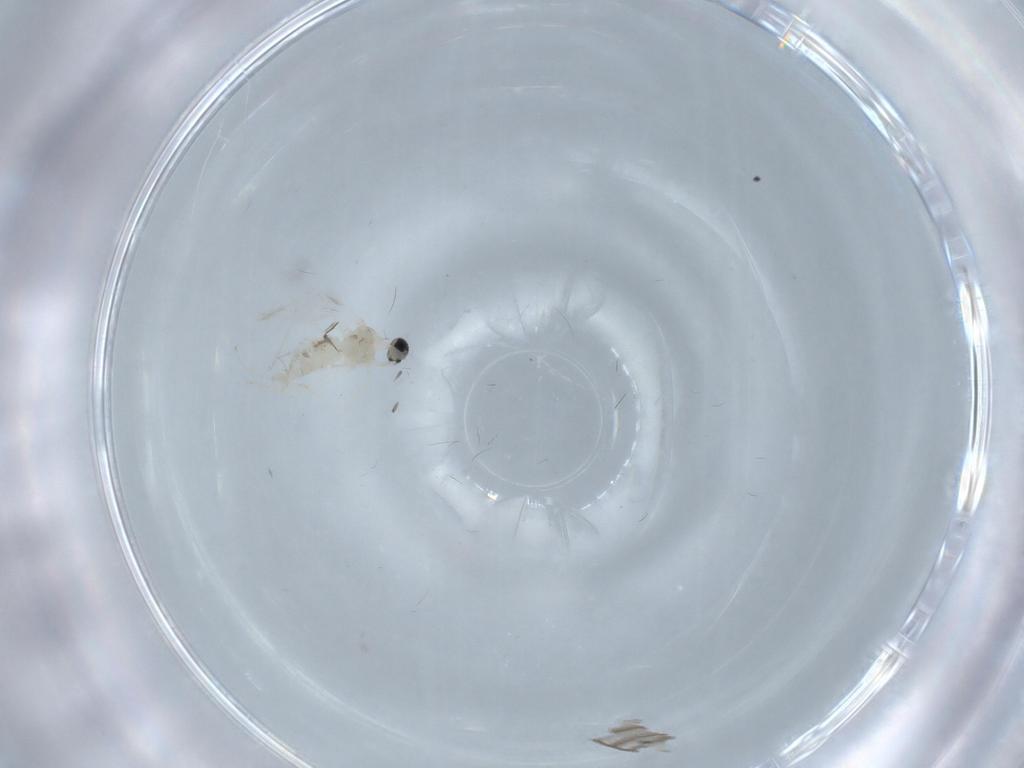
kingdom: Animalia
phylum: Arthropoda
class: Insecta
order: Diptera
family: Cecidomyiidae
